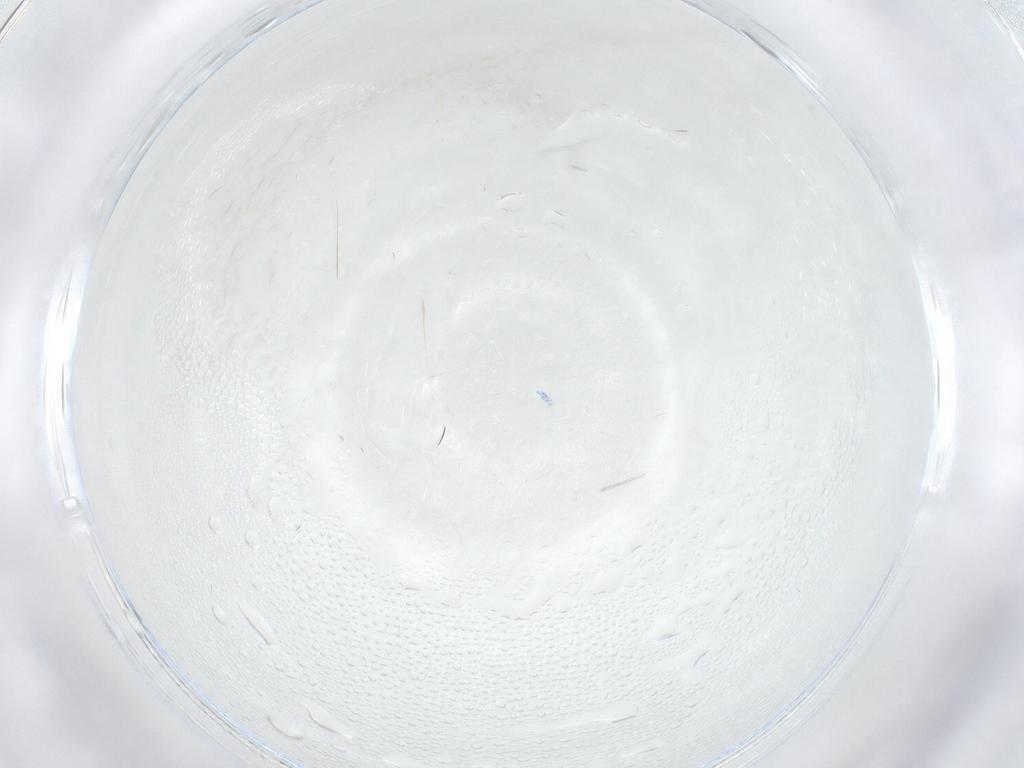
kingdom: Animalia
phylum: Arthropoda
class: Insecta
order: Diptera
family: Cecidomyiidae
